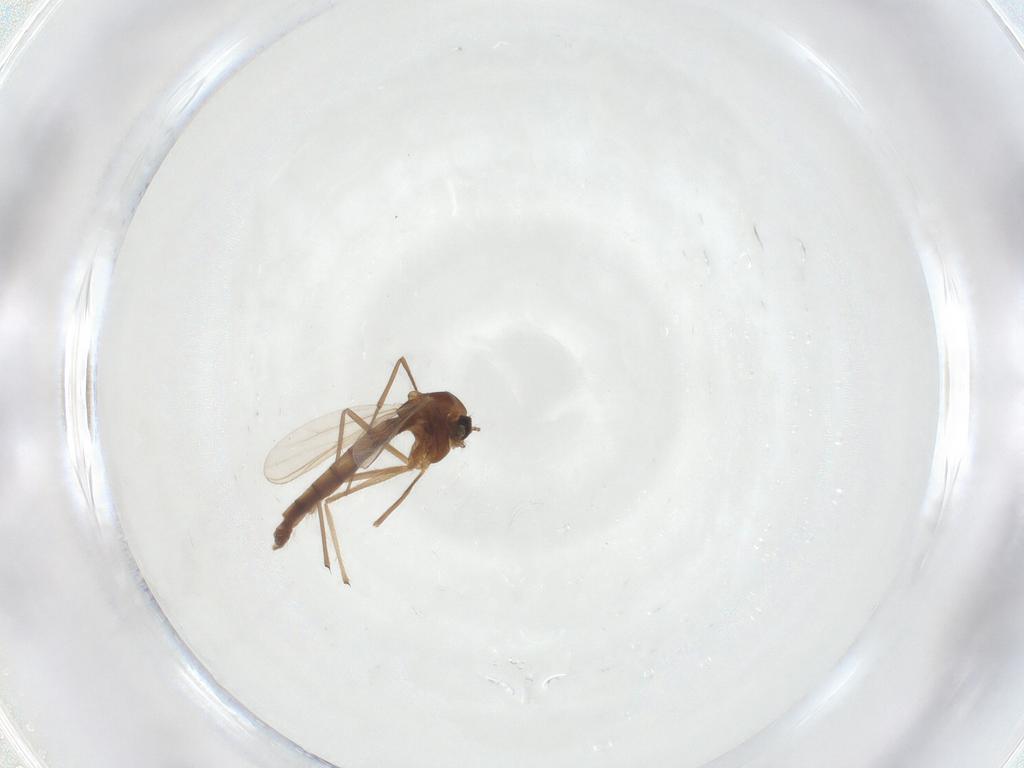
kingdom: Animalia
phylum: Arthropoda
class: Insecta
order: Diptera
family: Chironomidae
